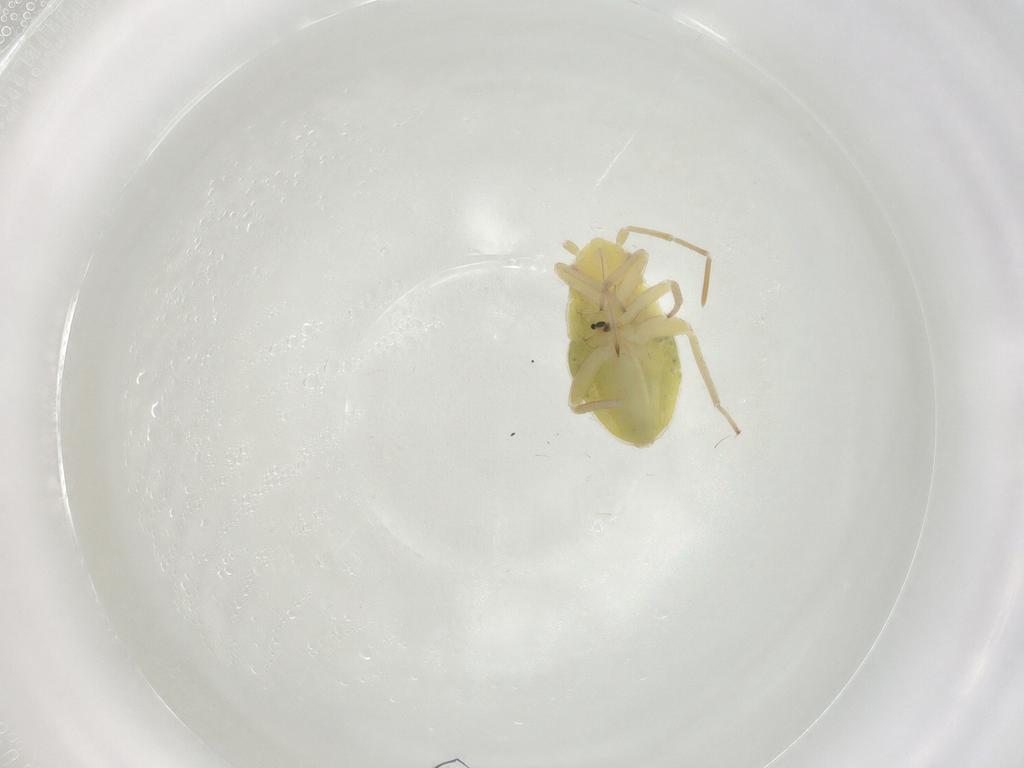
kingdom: Animalia
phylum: Arthropoda
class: Insecta
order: Hemiptera
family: Miridae
